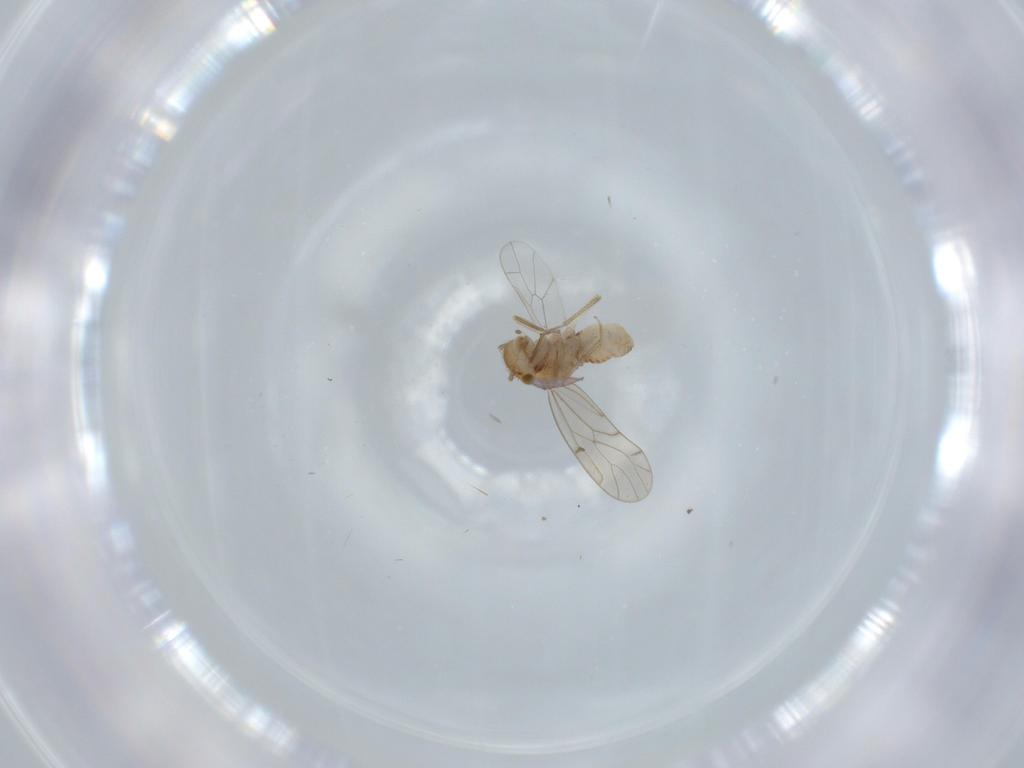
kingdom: Animalia
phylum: Arthropoda
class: Insecta
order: Psocodea
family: Ectopsocidae
